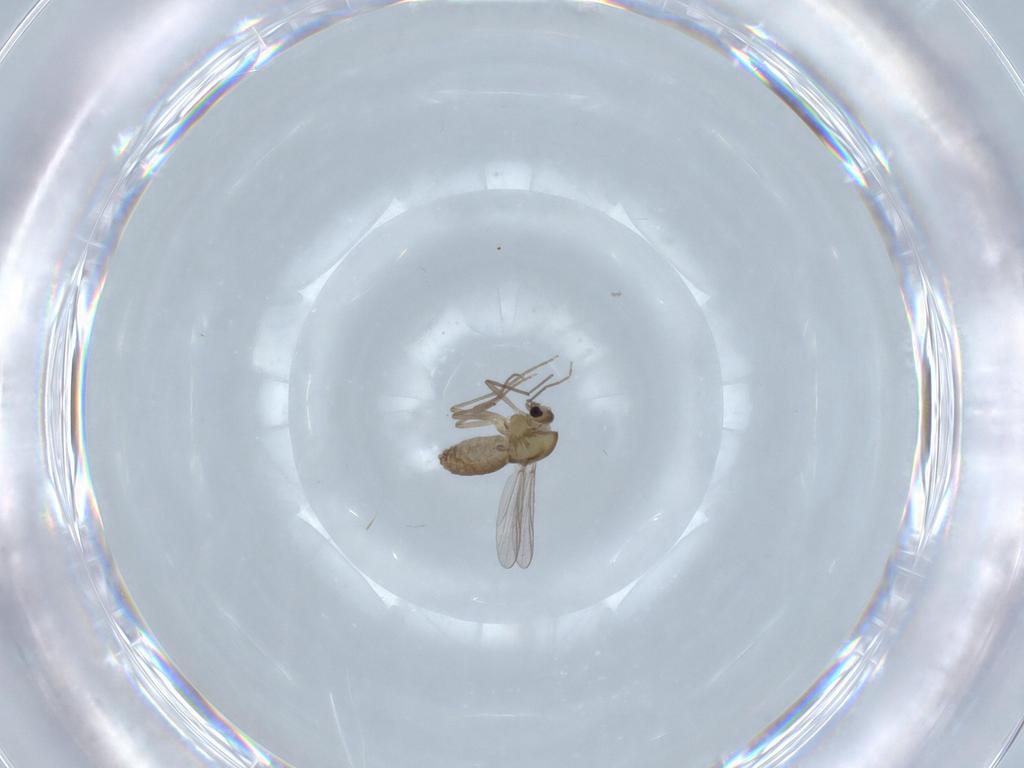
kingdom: Animalia
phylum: Arthropoda
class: Insecta
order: Diptera
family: Chironomidae
